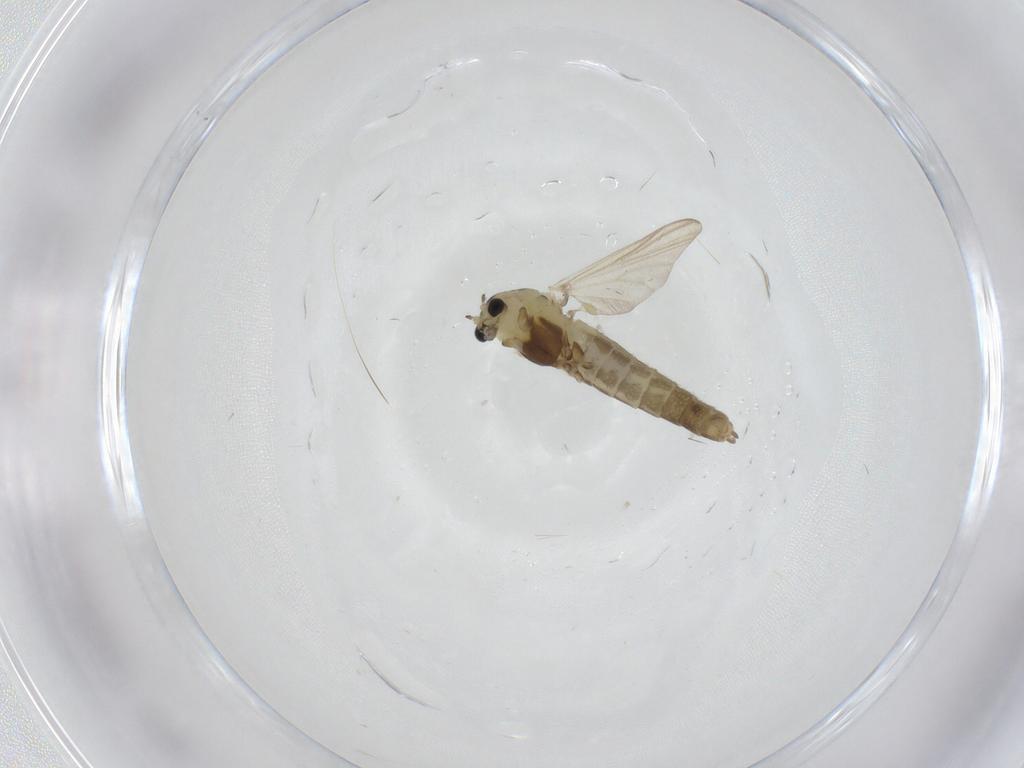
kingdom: Animalia
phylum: Arthropoda
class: Insecta
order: Diptera
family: Chironomidae
